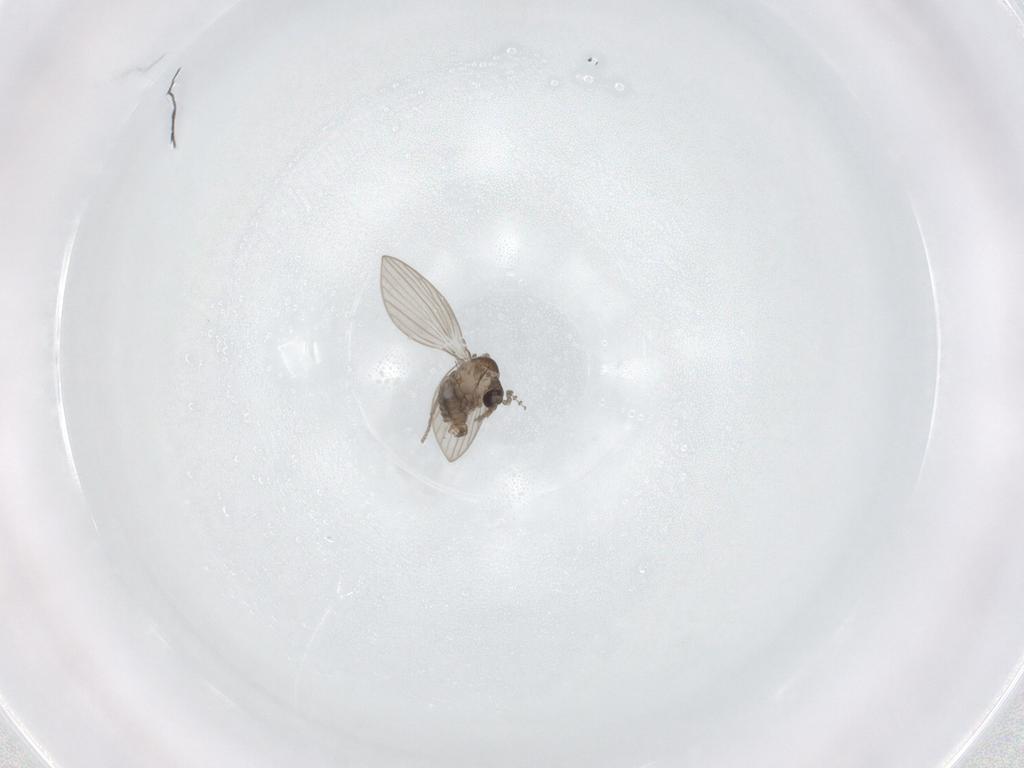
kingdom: Animalia
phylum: Arthropoda
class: Insecta
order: Diptera
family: Psychodidae
